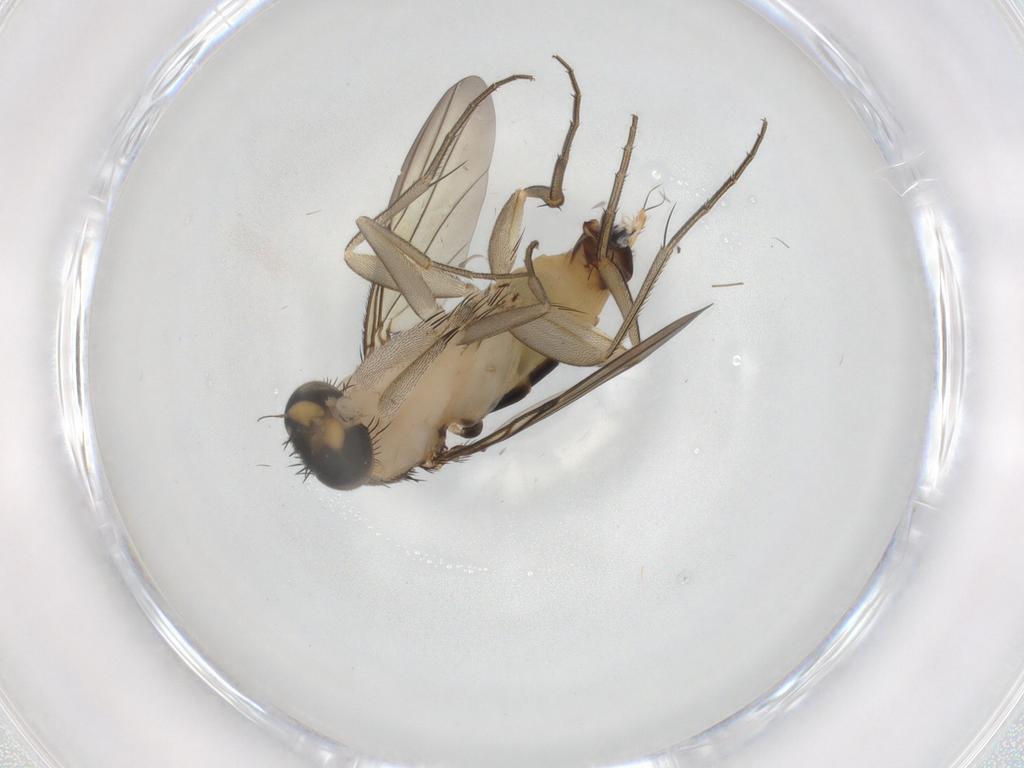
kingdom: Animalia
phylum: Arthropoda
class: Insecta
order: Diptera
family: Phoridae
